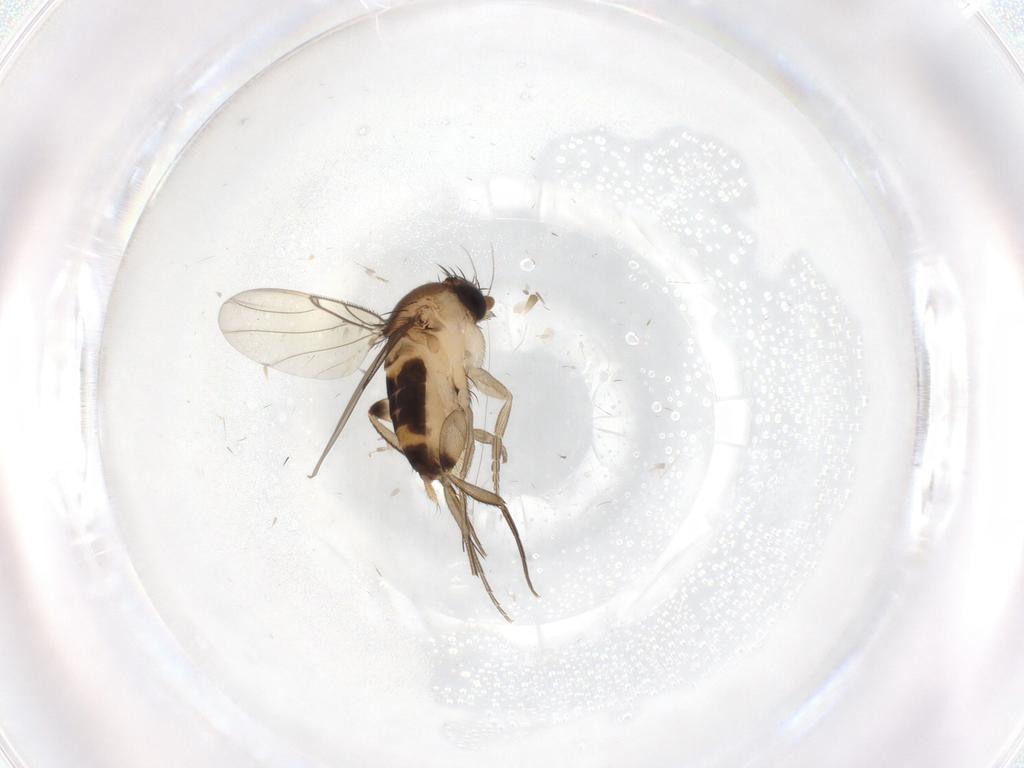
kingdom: Animalia
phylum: Arthropoda
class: Insecta
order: Diptera
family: Phoridae
